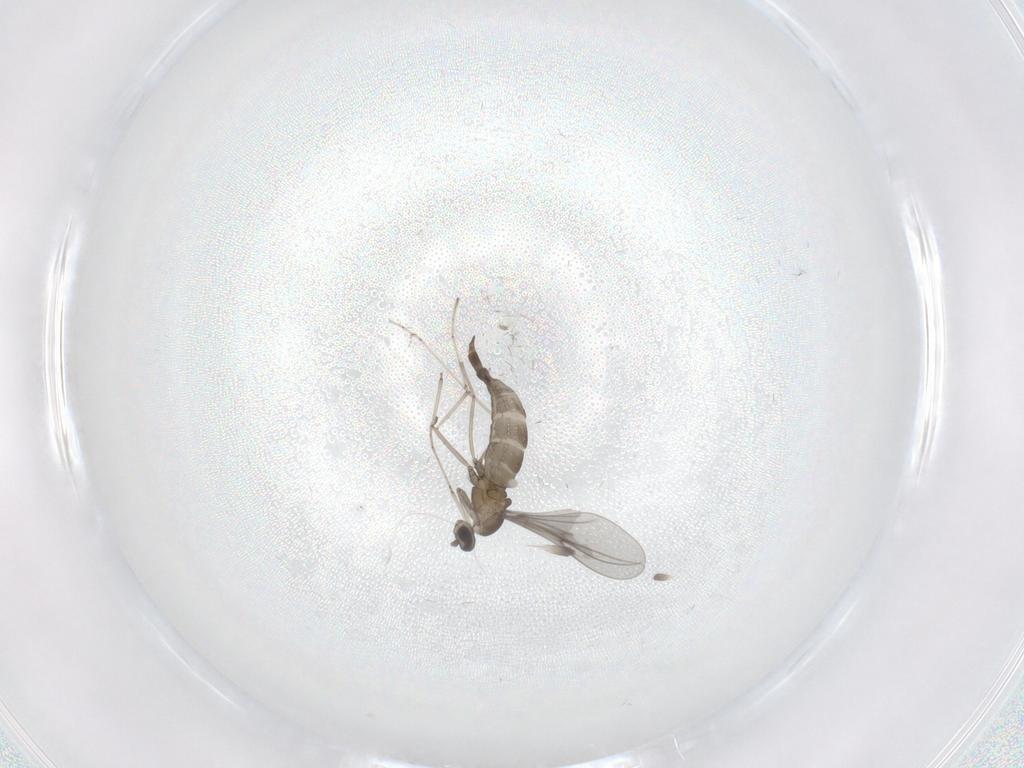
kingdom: Animalia
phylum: Arthropoda
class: Insecta
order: Diptera
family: Cecidomyiidae
